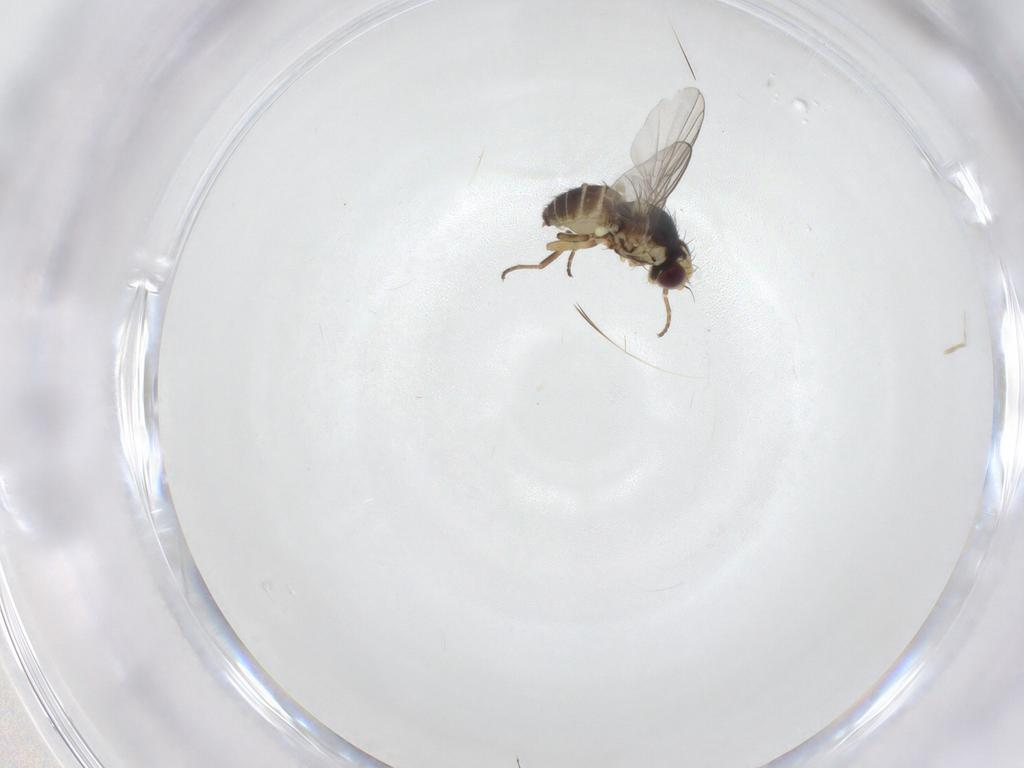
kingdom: Animalia
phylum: Arthropoda
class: Insecta
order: Diptera
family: Agromyzidae
